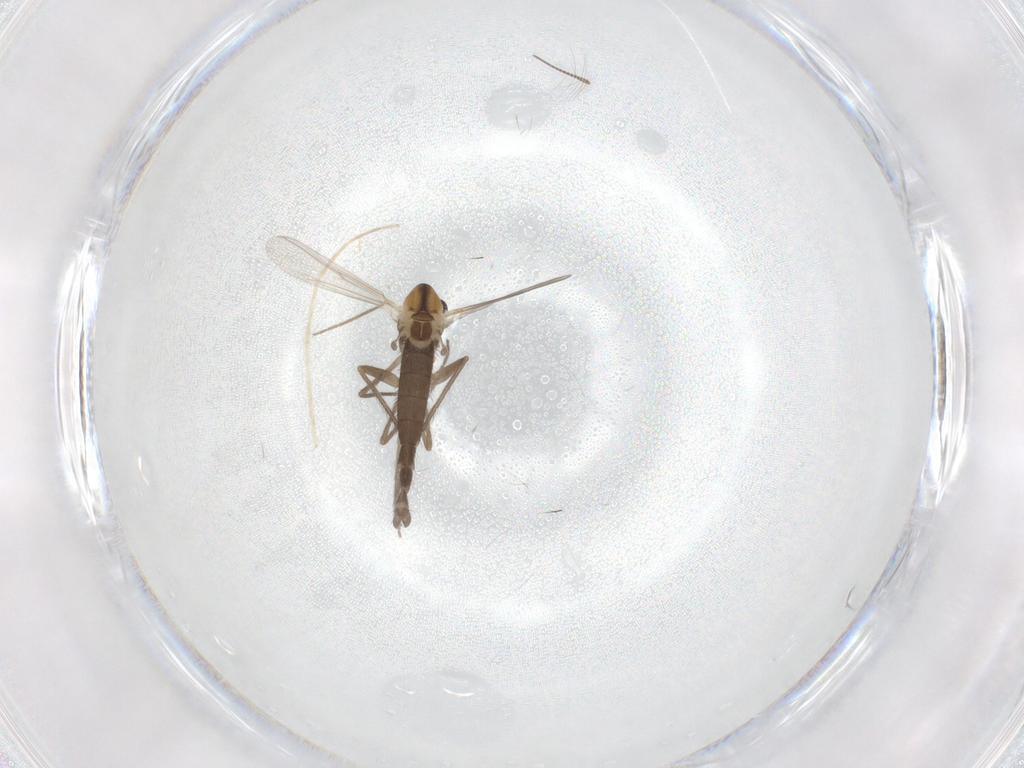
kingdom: Animalia
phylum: Arthropoda
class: Insecta
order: Diptera
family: Chironomidae
